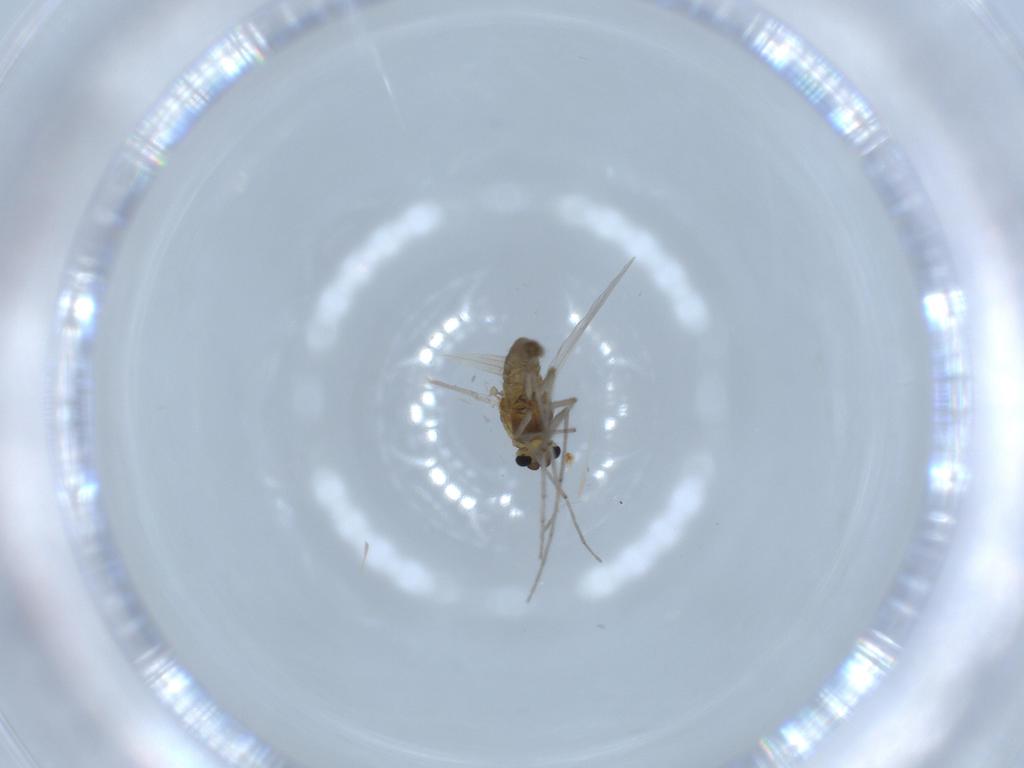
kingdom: Animalia
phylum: Arthropoda
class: Insecta
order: Diptera
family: Chironomidae
